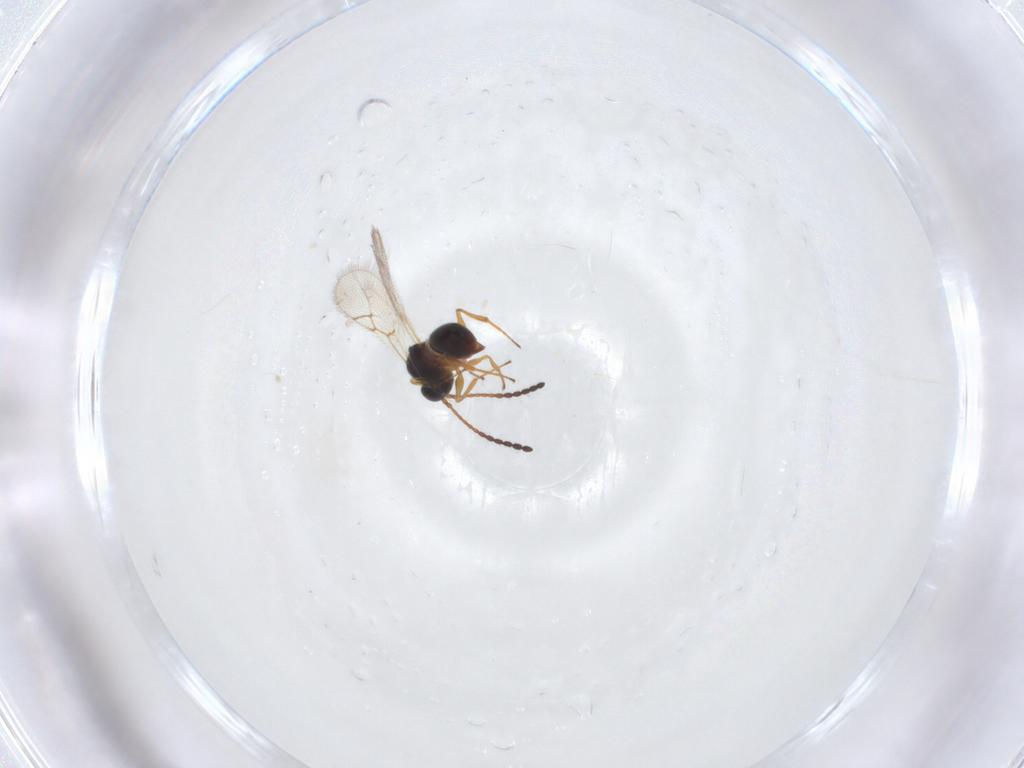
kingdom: Animalia
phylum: Arthropoda
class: Insecta
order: Hymenoptera
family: Figitidae
